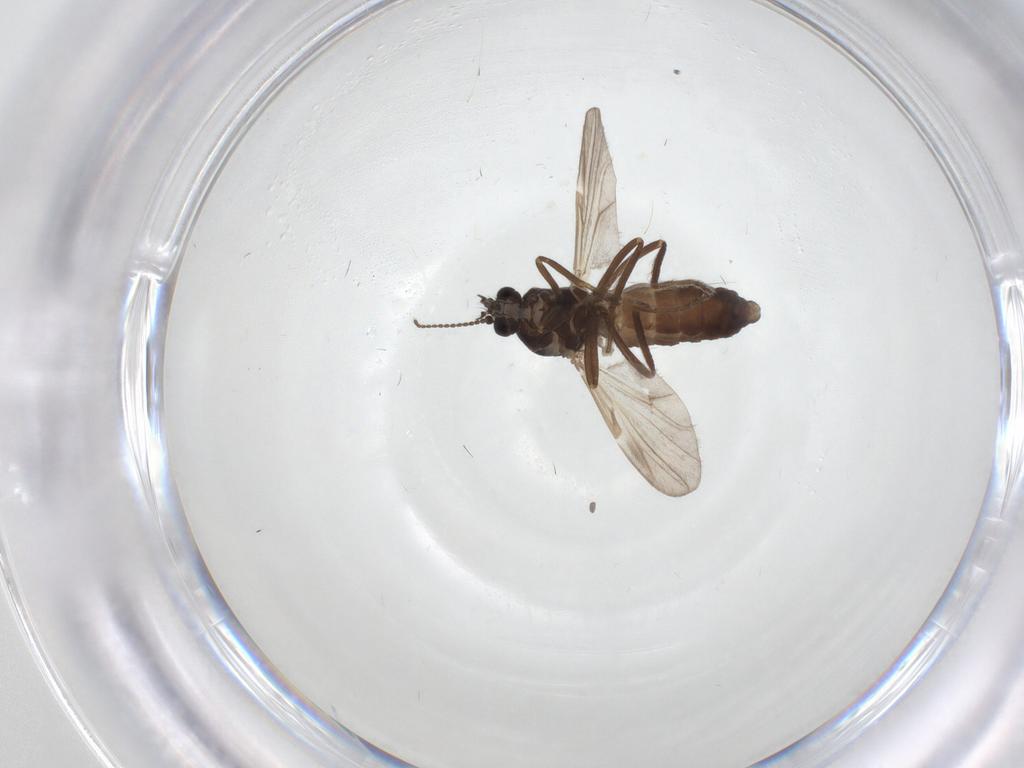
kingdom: Animalia
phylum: Arthropoda
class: Insecta
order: Diptera
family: Ceratopogonidae
